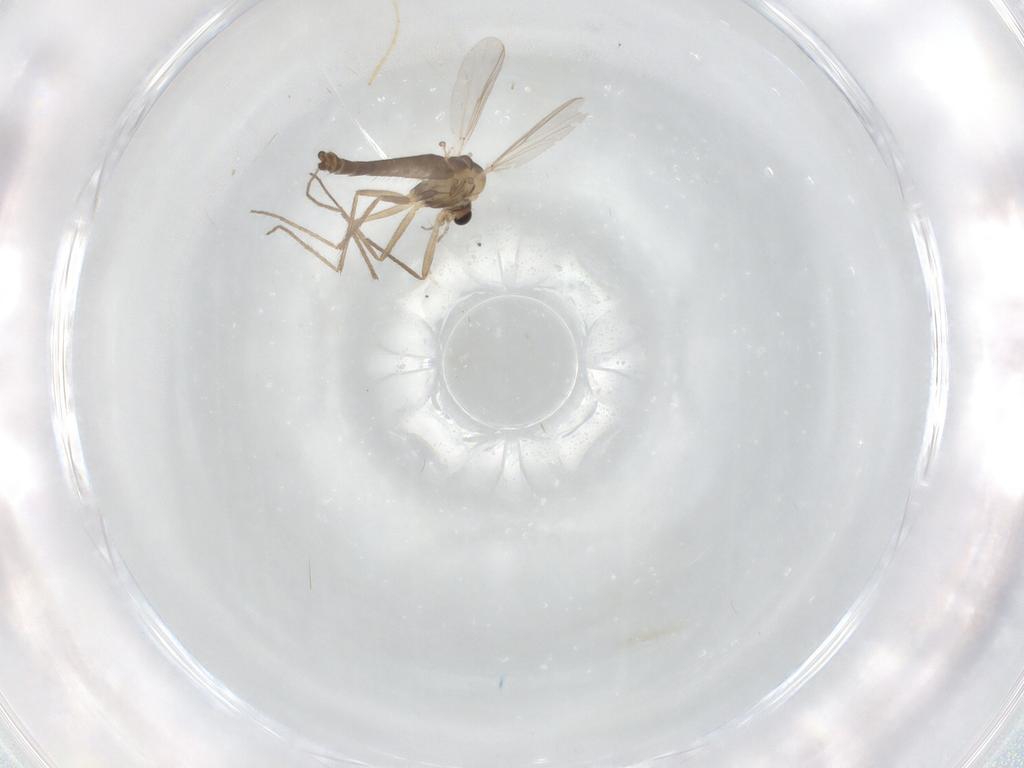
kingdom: Animalia
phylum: Arthropoda
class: Insecta
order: Diptera
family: Chironomidae
